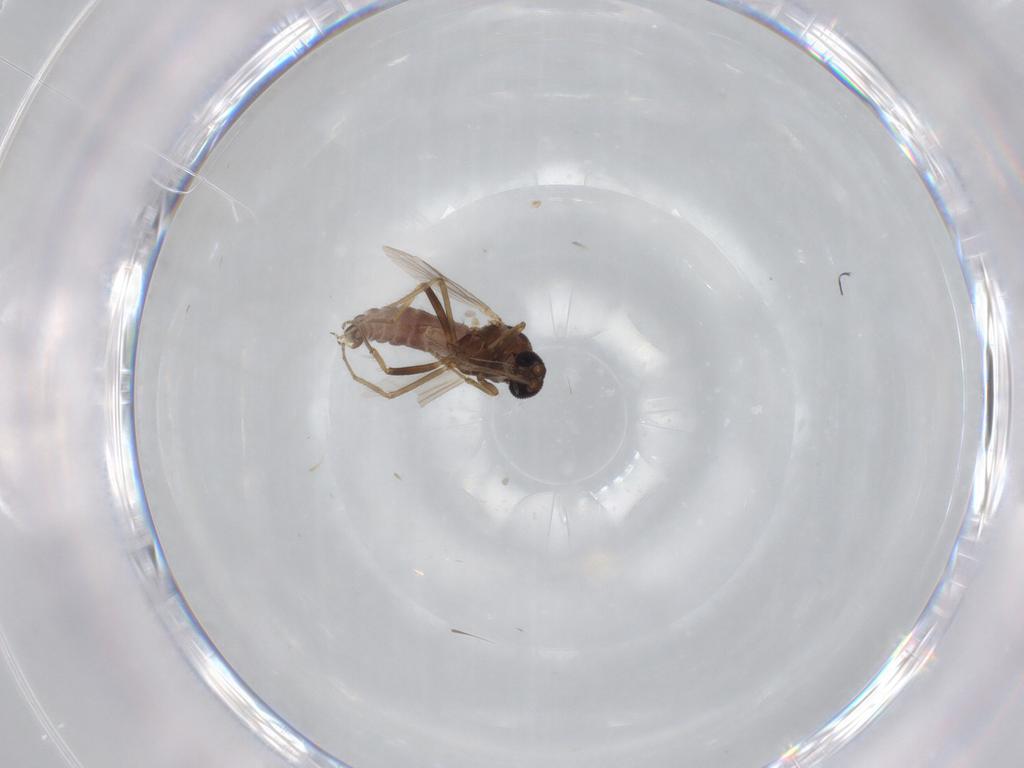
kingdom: Animalia
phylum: Arthropoda
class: Insecta
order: Diptera
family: Ceratopogonidae
